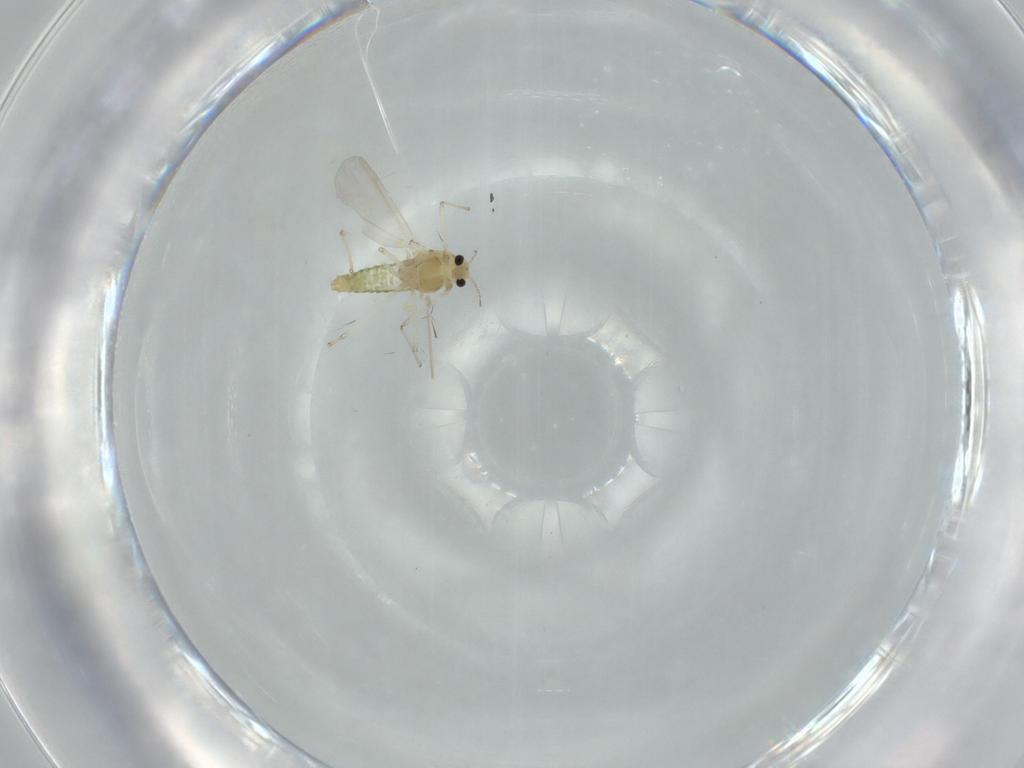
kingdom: Animalia
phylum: Arthropoda
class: Insecta
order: Diptera
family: Chironomidae
